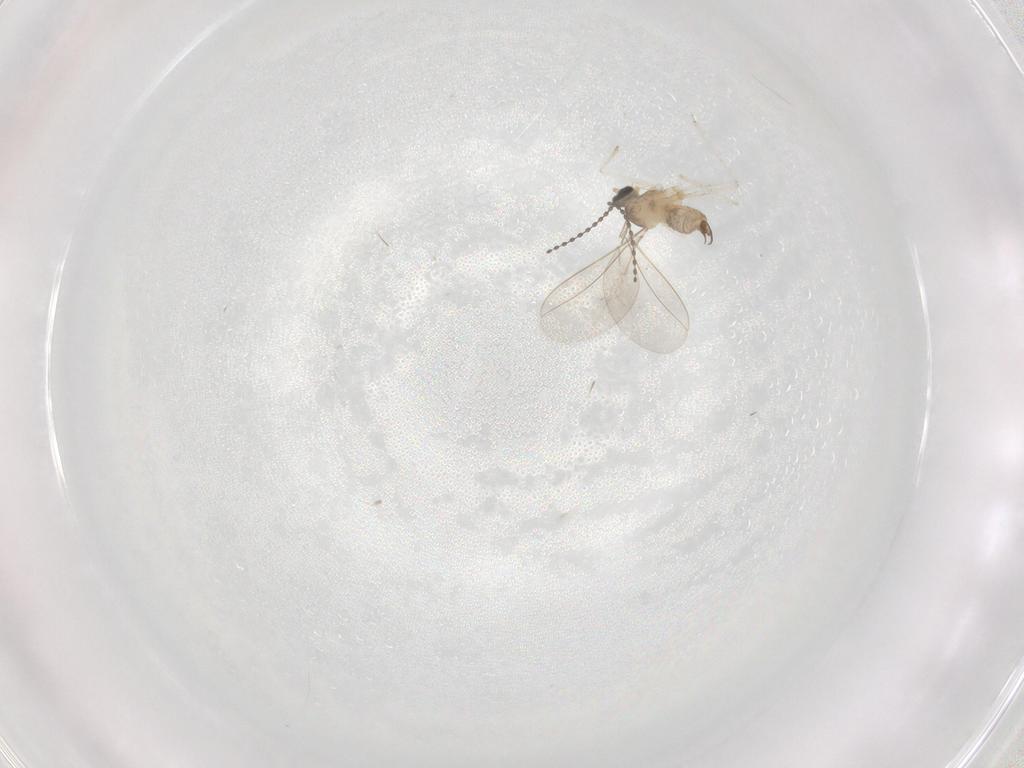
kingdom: Animalia
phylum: Arthropoda
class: Insecta
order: Diptera
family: Cecidomyiidae
